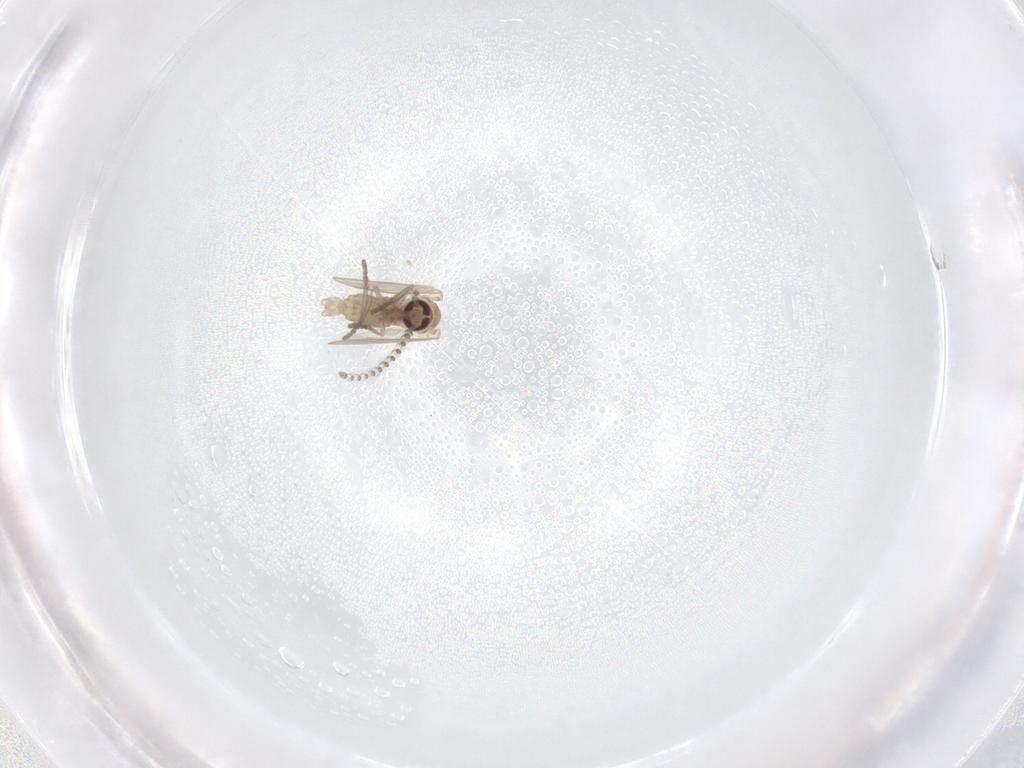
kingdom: Animalia
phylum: Arthropoda
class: Insecta
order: Diptera
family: Psychodidae
